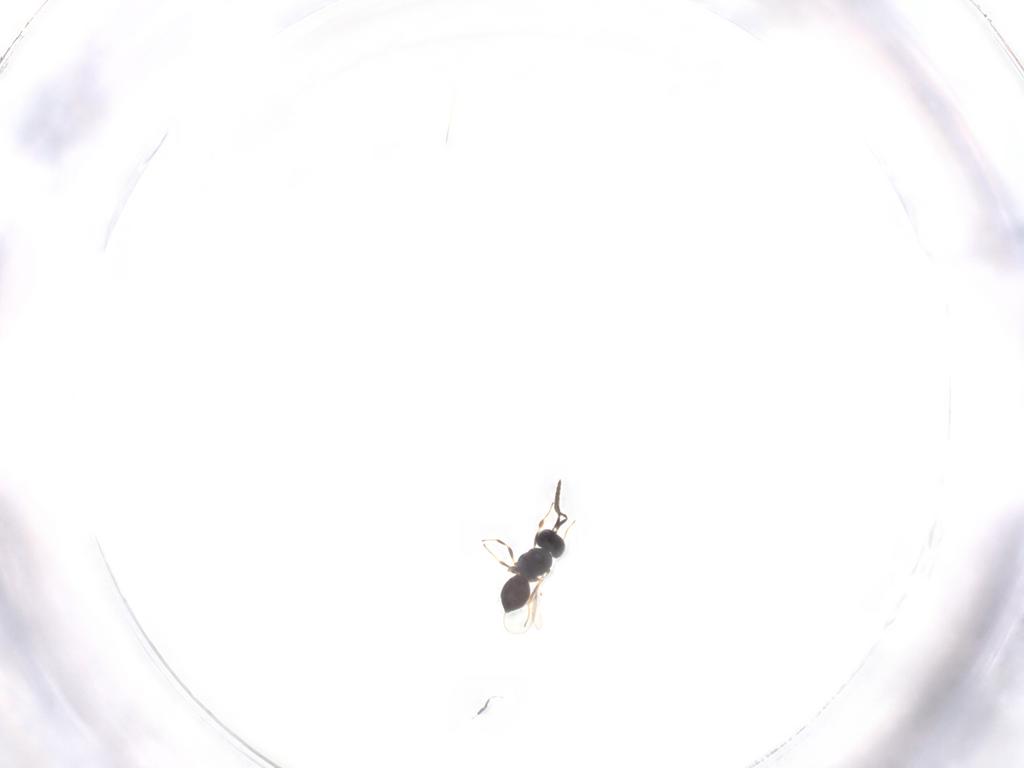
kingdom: Animalia
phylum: Arthropoda
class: Insecta
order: Hymenoptera
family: Scelionidae
